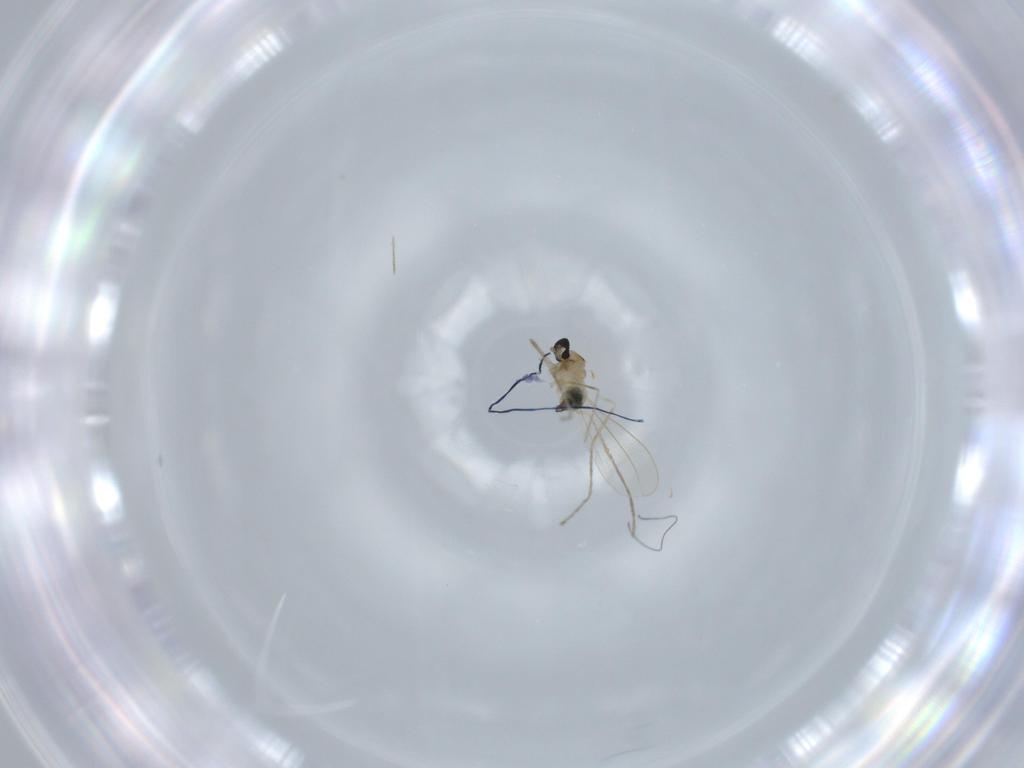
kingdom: Animalia
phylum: Arthropoda
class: Insecta
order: Diptera
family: Cecidomyiidae
